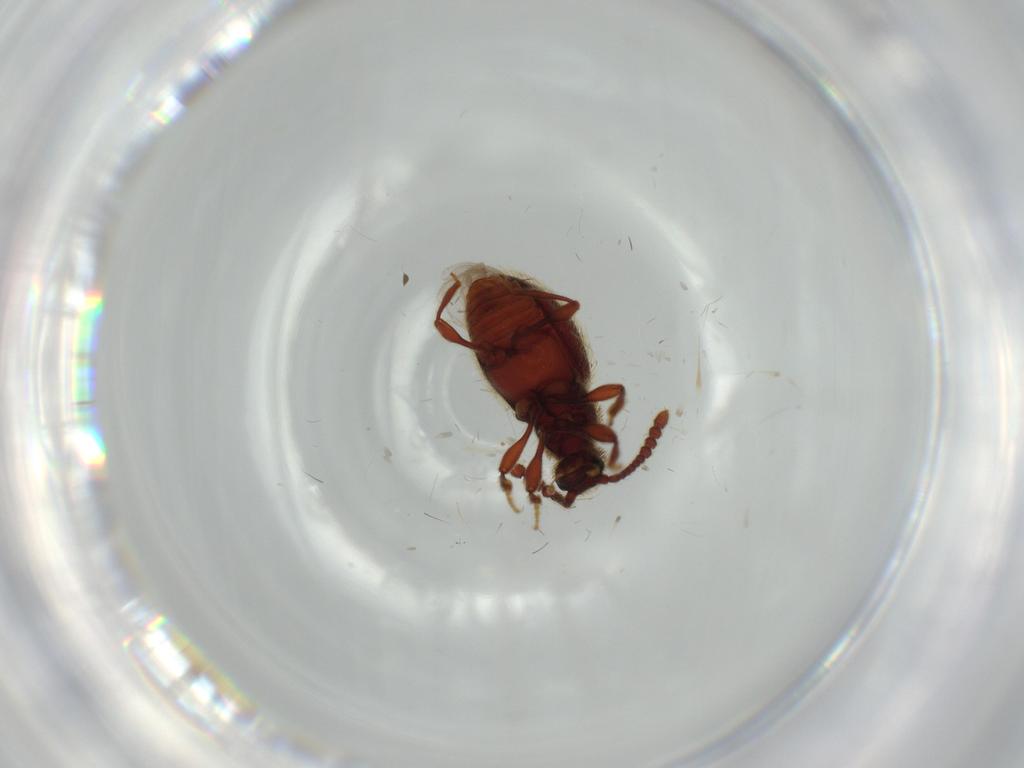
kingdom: Animalia
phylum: Arthropoda
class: Insecta
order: Coleoptera
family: Staphylinidae
